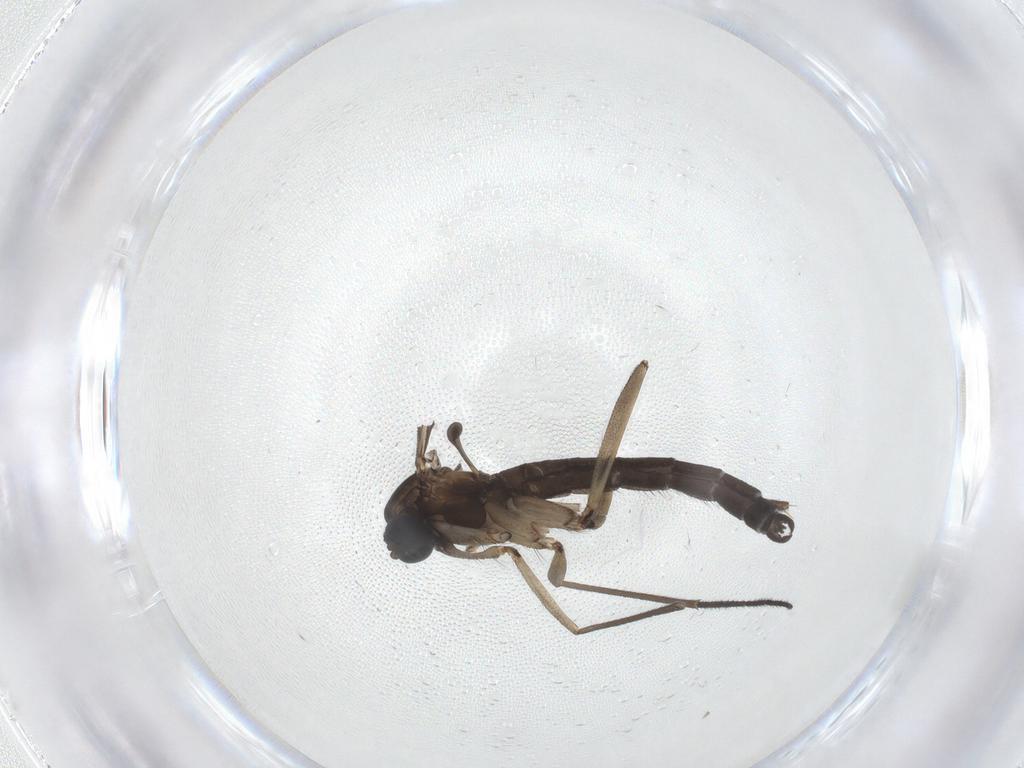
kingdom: Animalia
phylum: Arthropoda
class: Insecta
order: Diptera
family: Sciaridae
